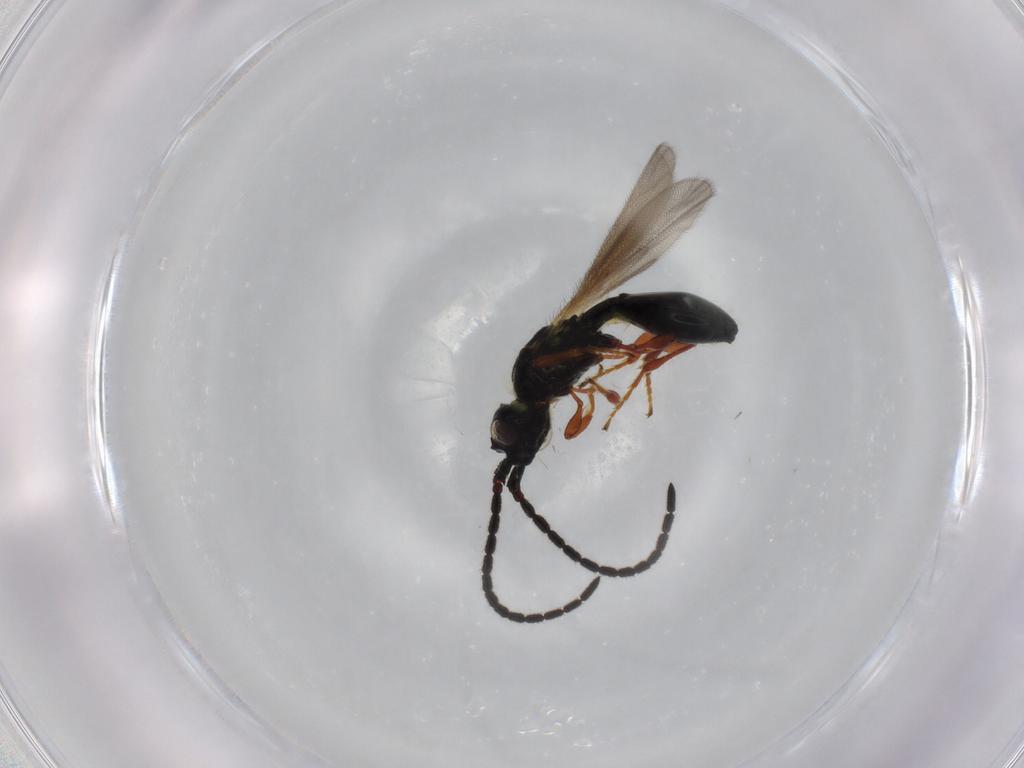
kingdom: Animalia
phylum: Arthropoda
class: Insecta
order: Hymenoptera
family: Diapriidae
